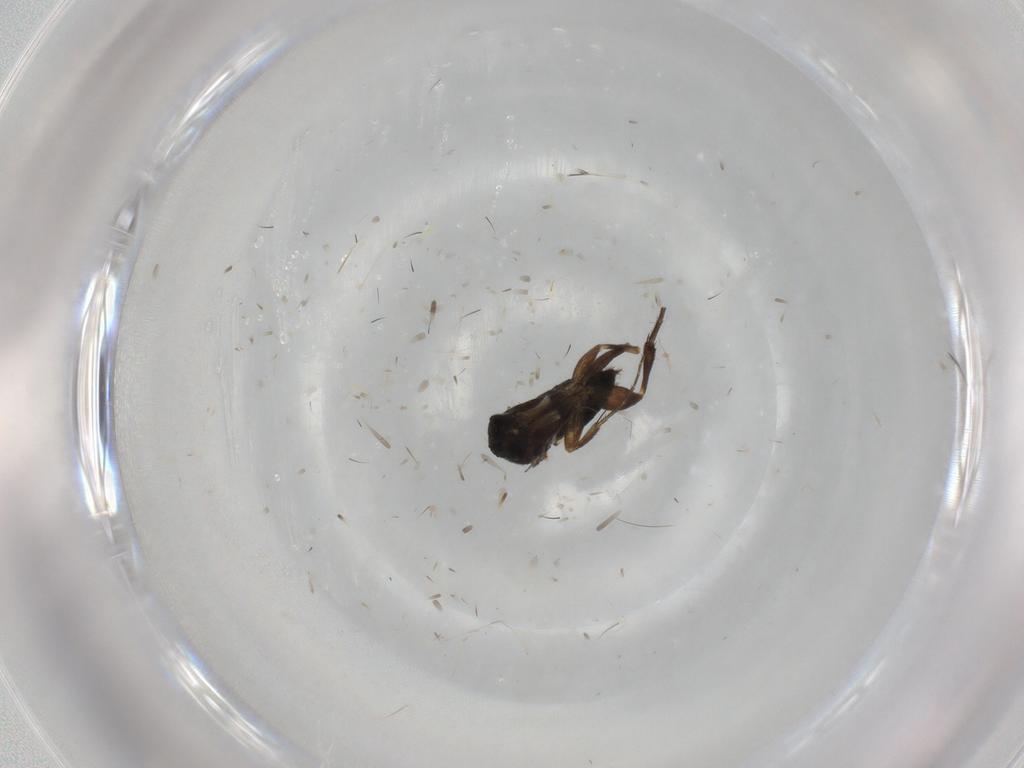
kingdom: Animalia
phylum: Arthropoda
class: Insecta
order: Diptera
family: Phoridae
